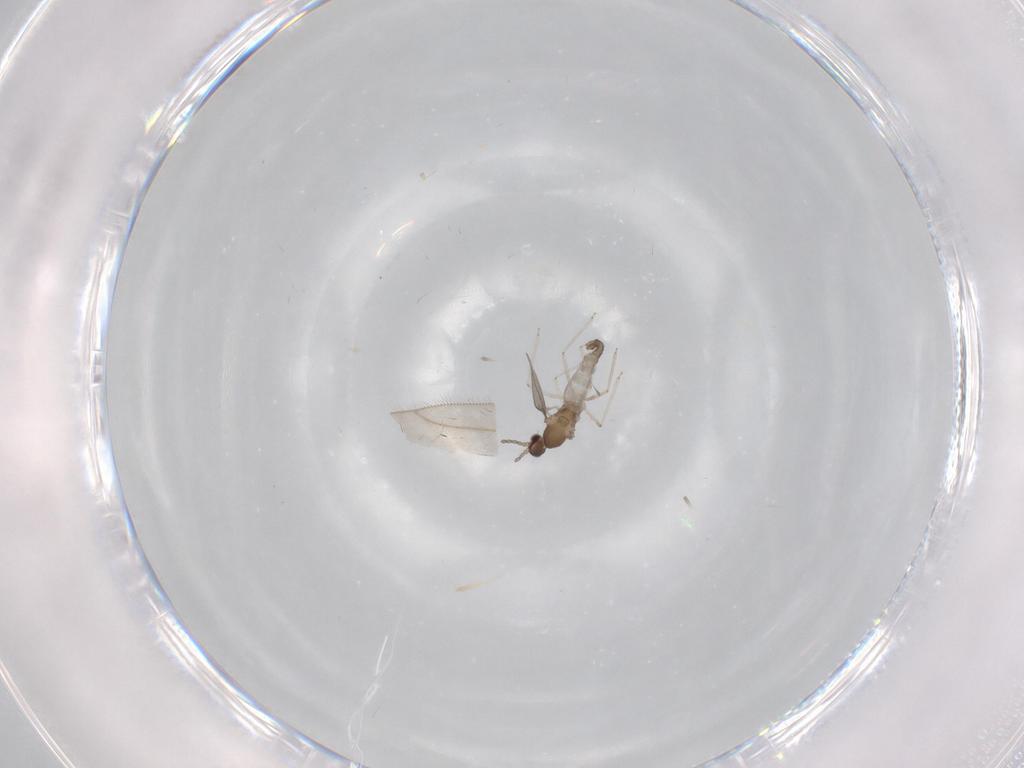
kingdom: Animalia
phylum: Arthropoda
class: Insecta
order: Diptera
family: Cecidomyiidae
